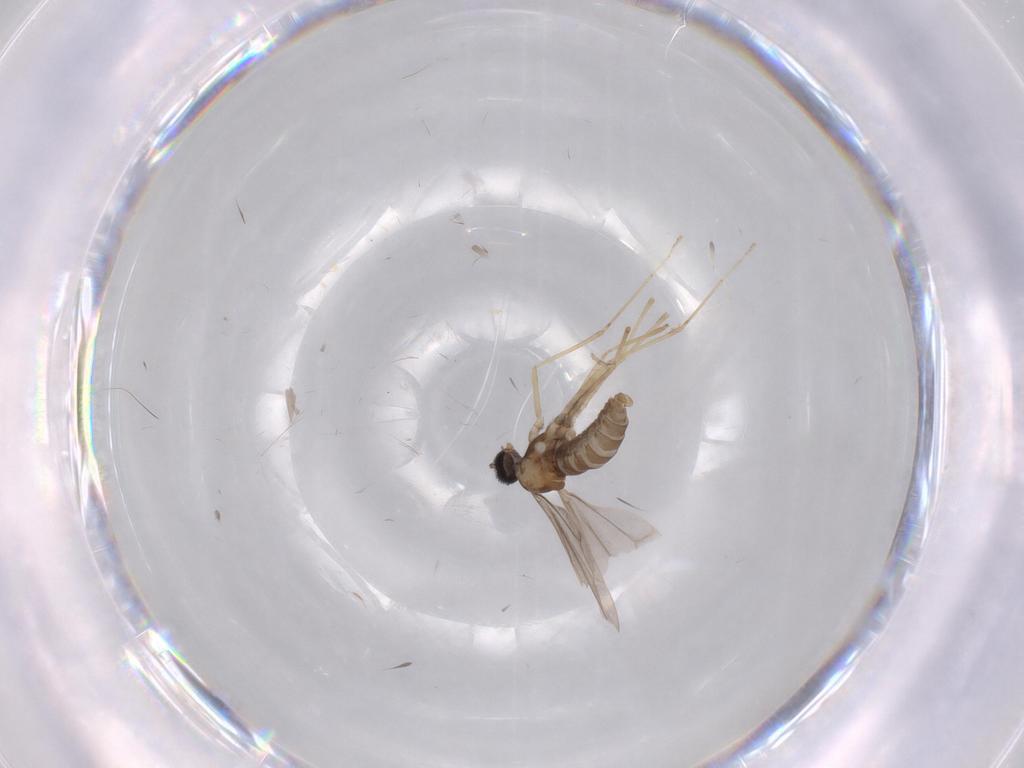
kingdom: Animalia
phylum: Arthropoda
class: Insecta
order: Diptera
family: Cecidomyiidae
